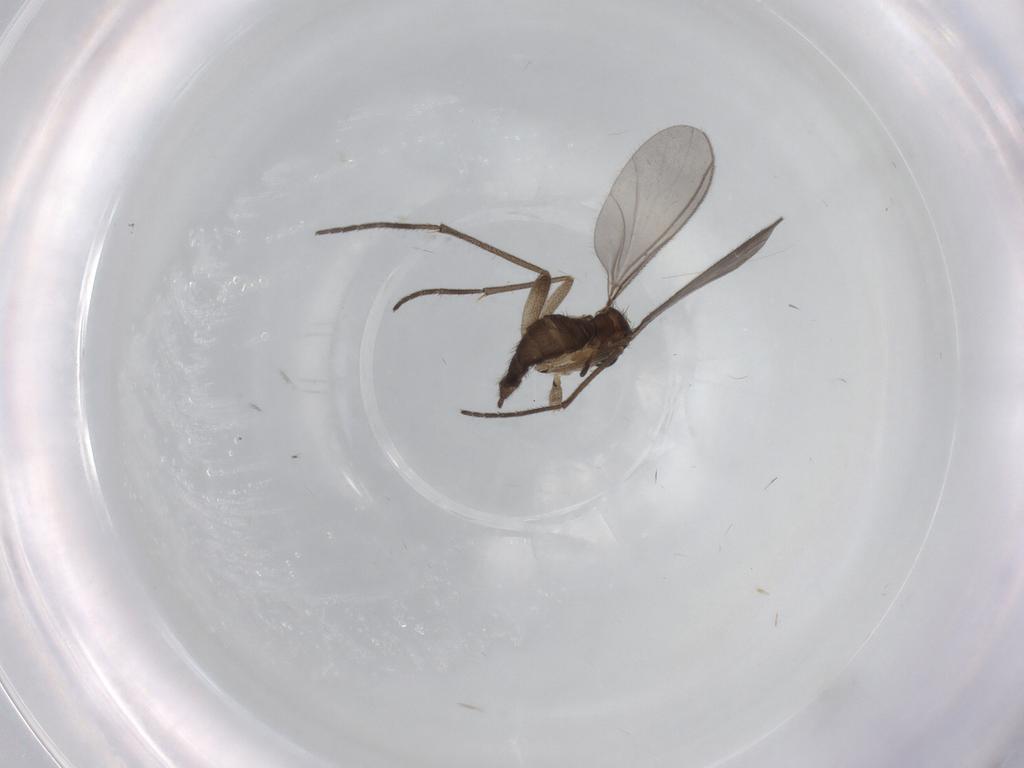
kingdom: Animalia
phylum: Arthropoda
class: Insecta
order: Diptera
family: Sciaridae
